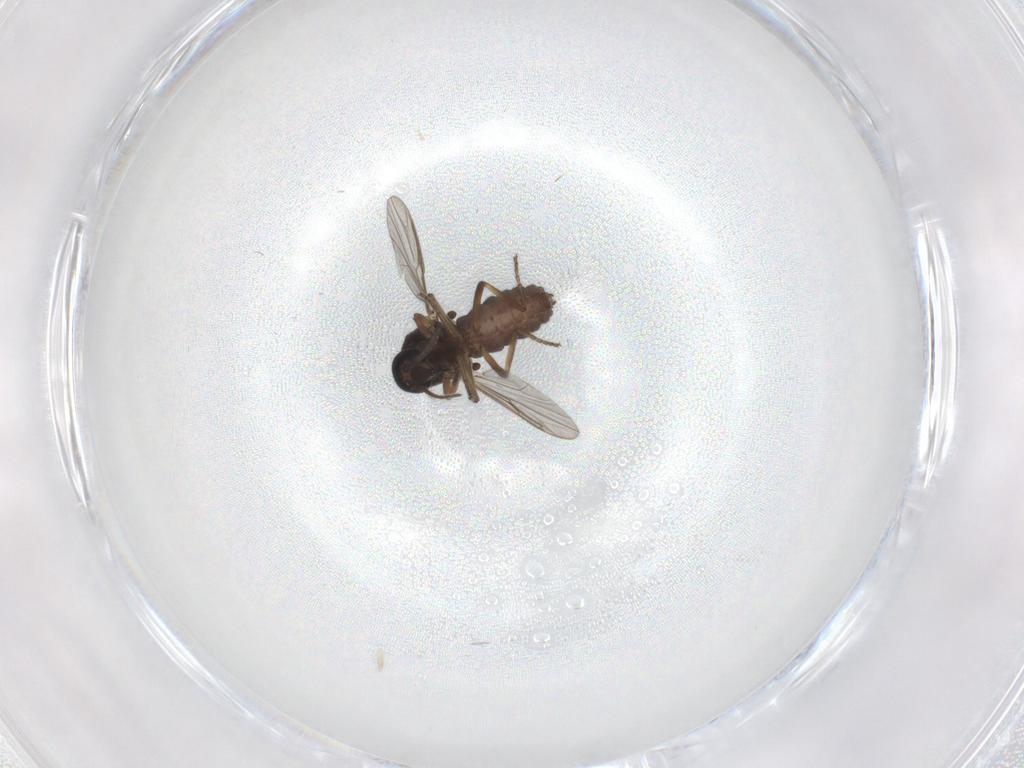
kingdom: Animalia
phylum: Arthropoda
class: Insecta
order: Diptera
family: Ceratopogonidae
